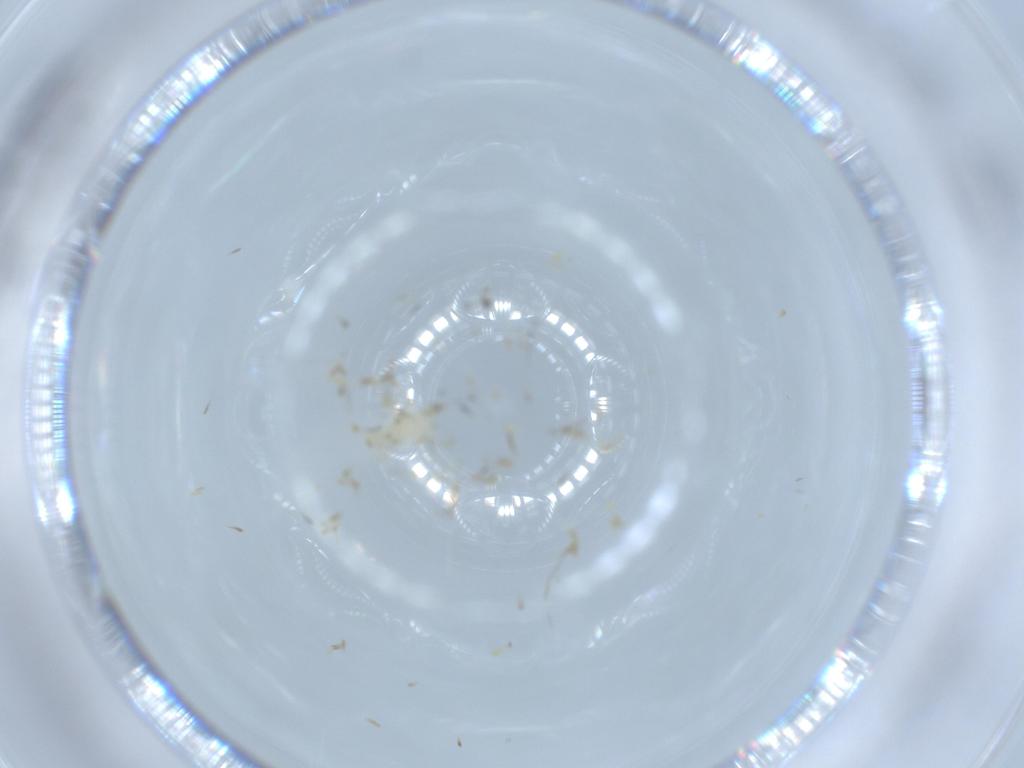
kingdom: Animalia
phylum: Arthropoda
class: Insecta
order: Diptera
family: Mycetophilidae
